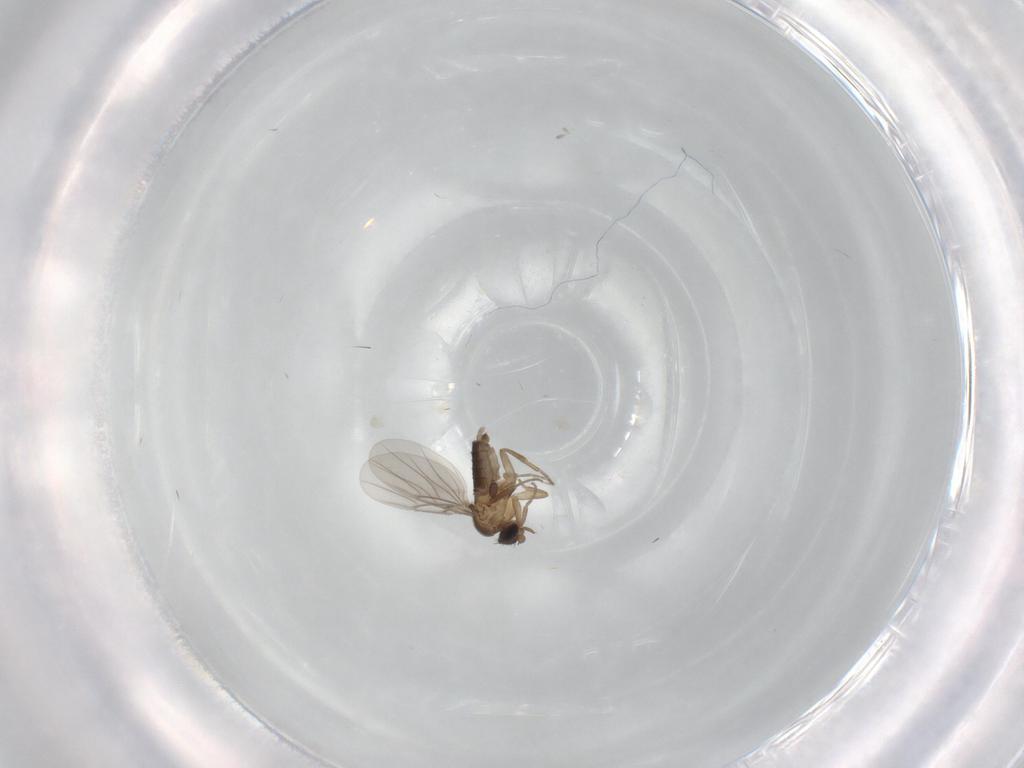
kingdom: Animalia
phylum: Arthropoda
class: Insecta
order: Diptera
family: Phoridae
